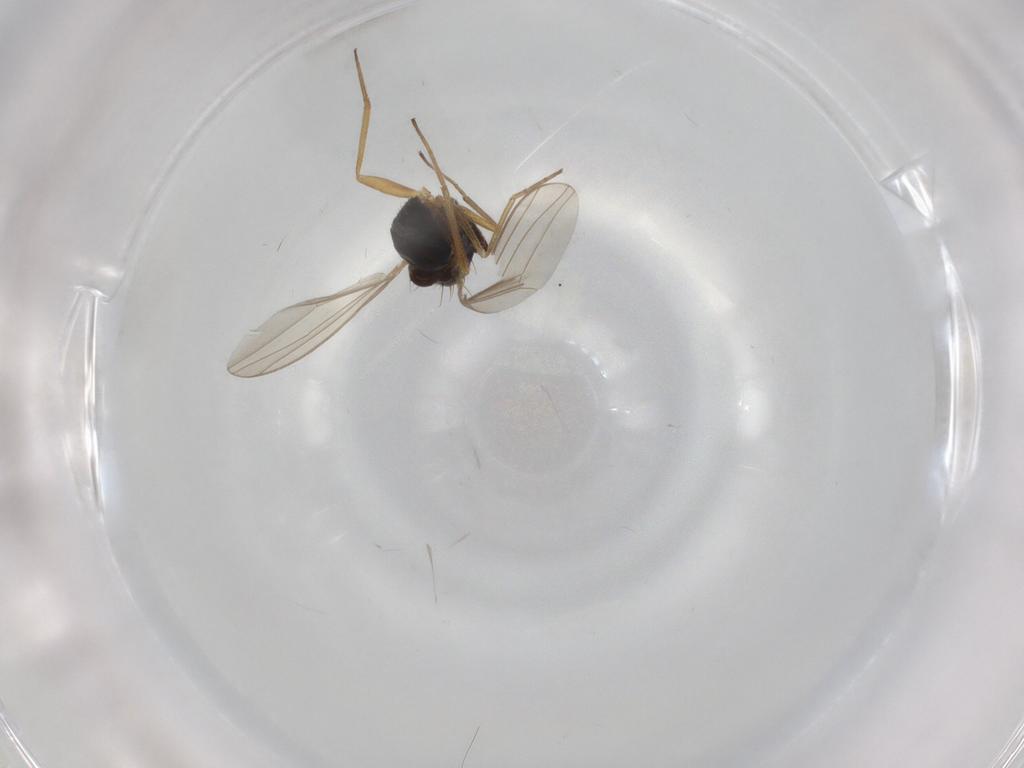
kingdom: Animalia
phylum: Arthropoda
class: Insecta
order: Diptera
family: Cecidomyiidae
